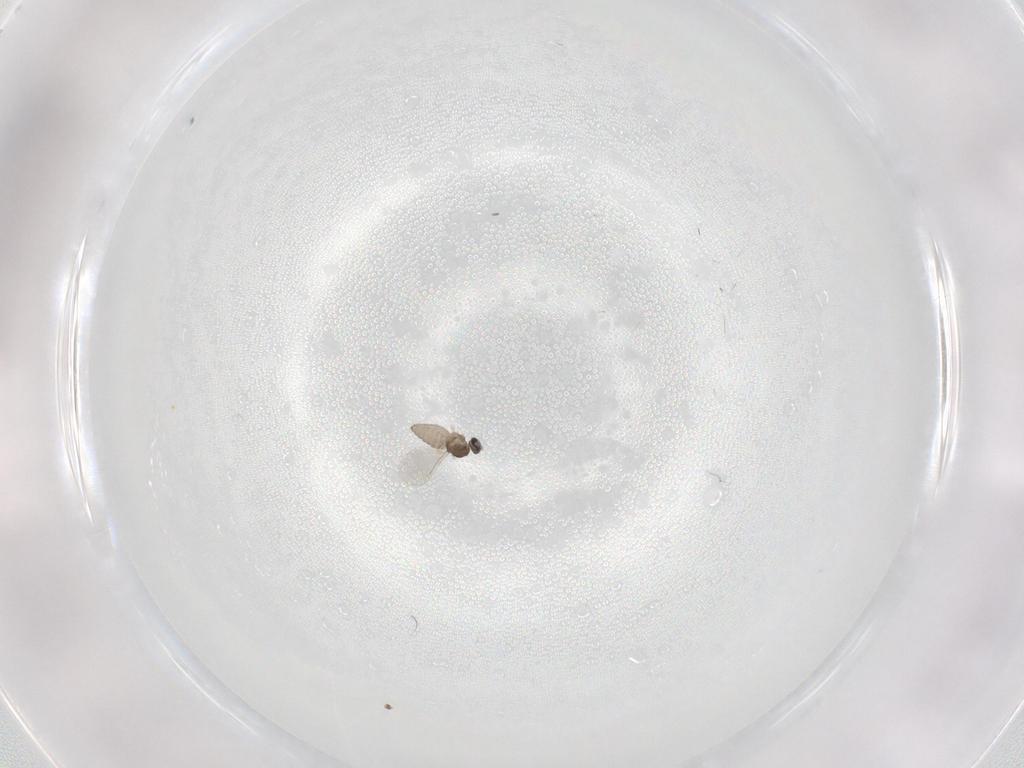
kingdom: Animalia
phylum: Arthropoda
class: Insecta
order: Diptera
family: Cecidomyiidae
